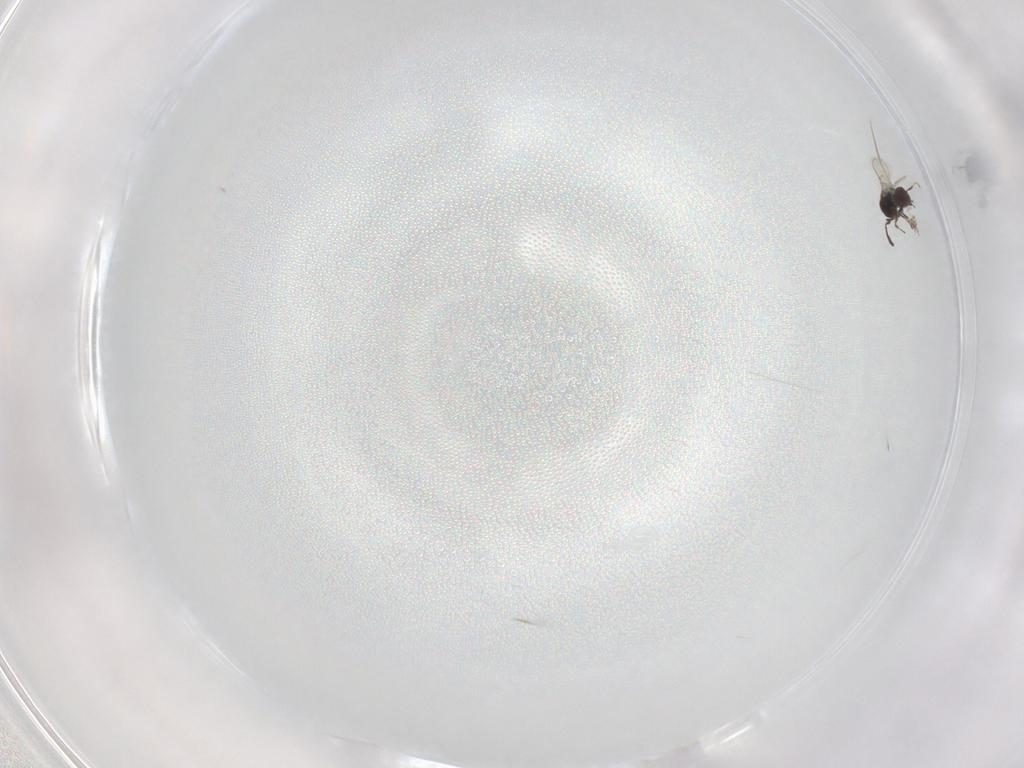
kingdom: Animalia
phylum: Arthropoda
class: Insecta
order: Hymenoptera
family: Scelionidae
